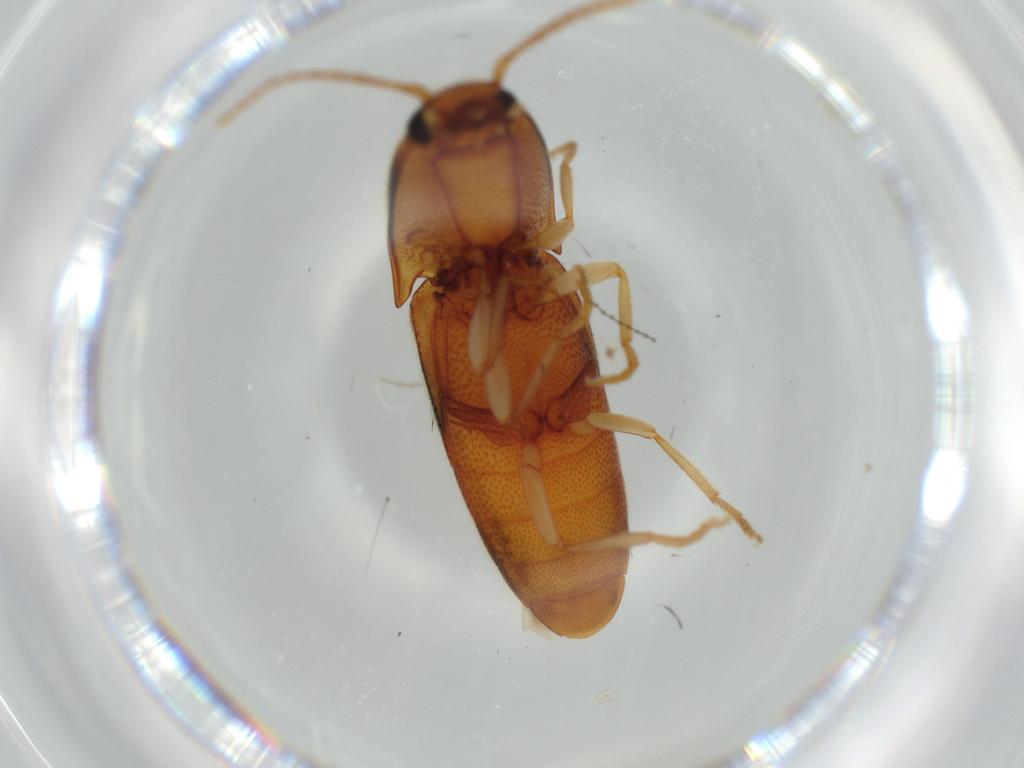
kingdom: Animalia
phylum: Arthropoda
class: Insecta
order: Coleoptera
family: Elateridae
